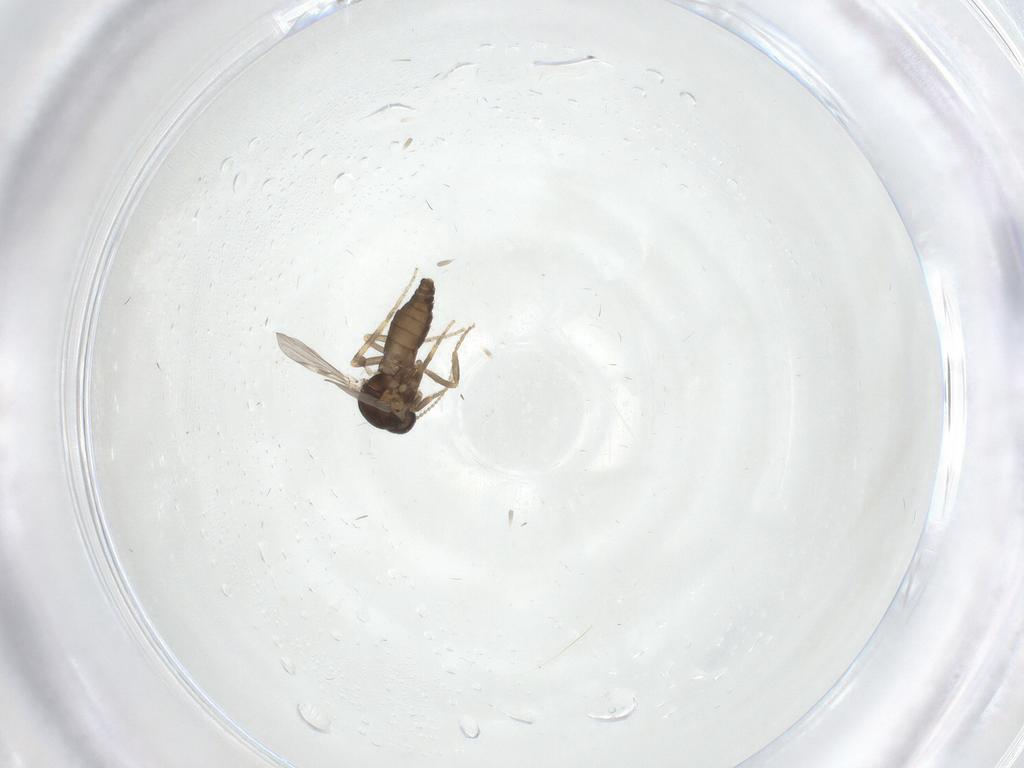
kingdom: Animalia
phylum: Arthropoda
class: Insecta
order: Diptera
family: Ceratopogonidae
